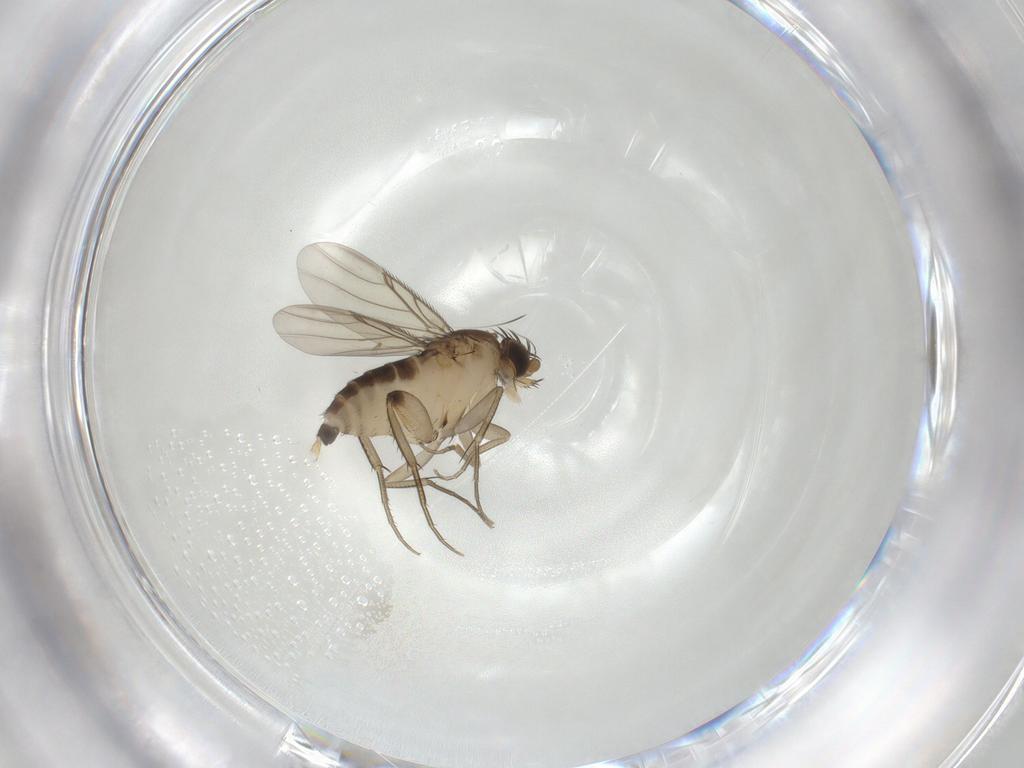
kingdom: Animalia
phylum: Arthropoda
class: Insecta
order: Diptera
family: Cecidomyiidae
